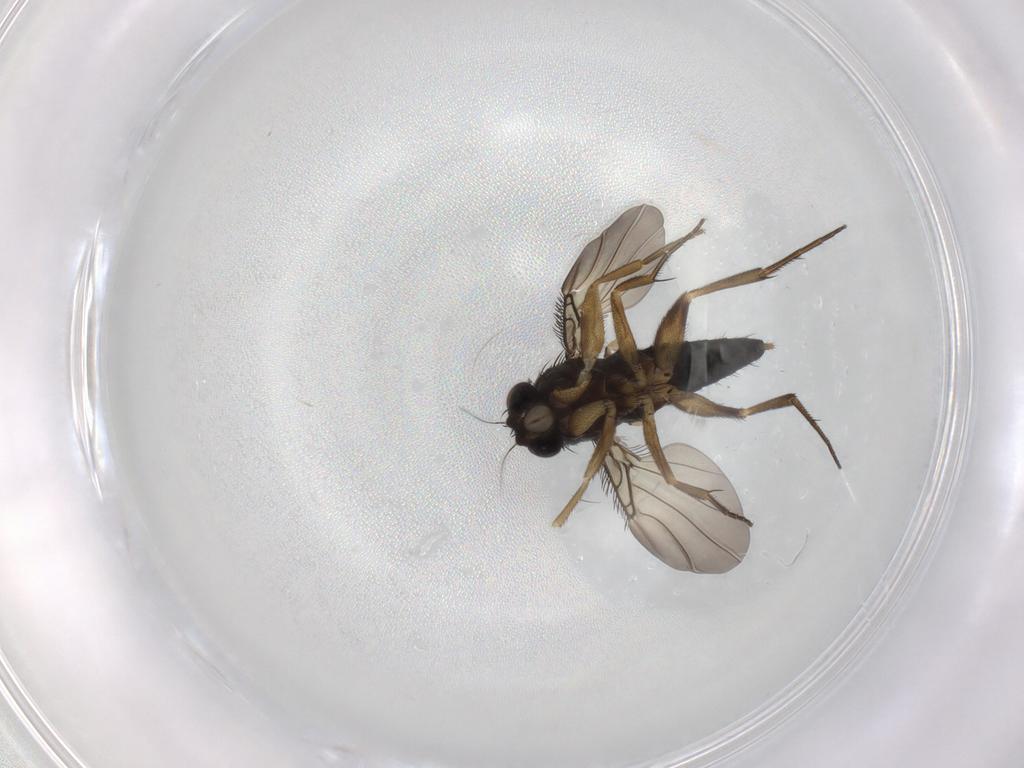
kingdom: Animalia
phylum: Arthropoda
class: Insecta
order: Diptera
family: Phoridae
